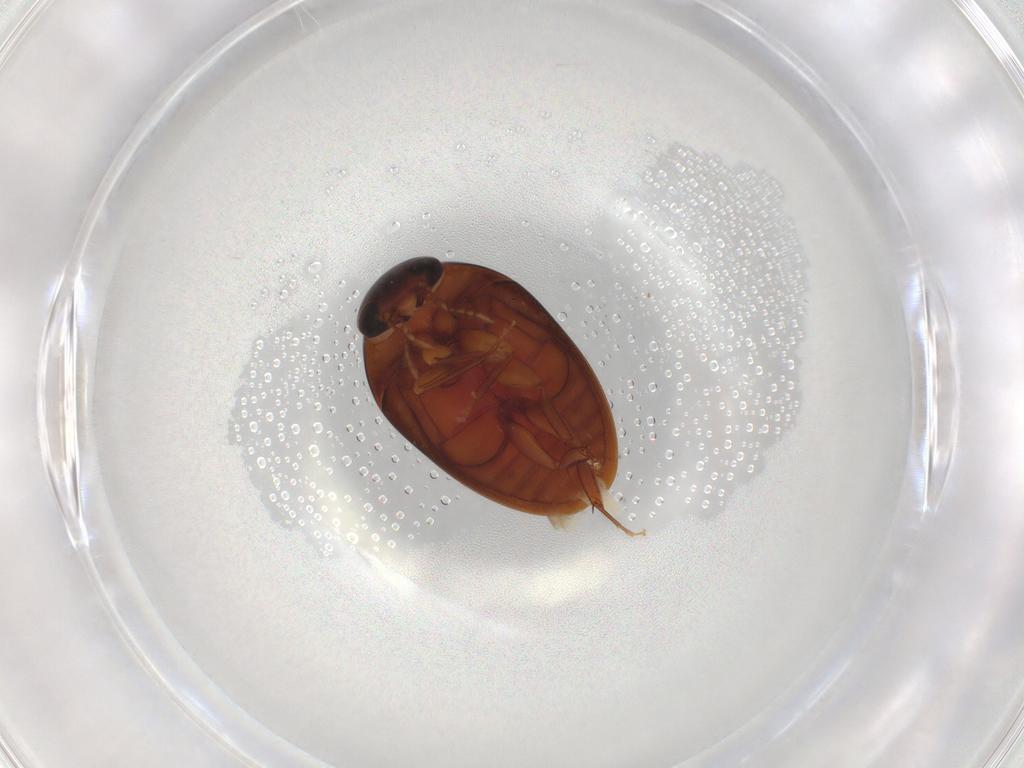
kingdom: Animalia
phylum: Arthropoda
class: Insecta
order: Coleoptera
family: Phalacridae
